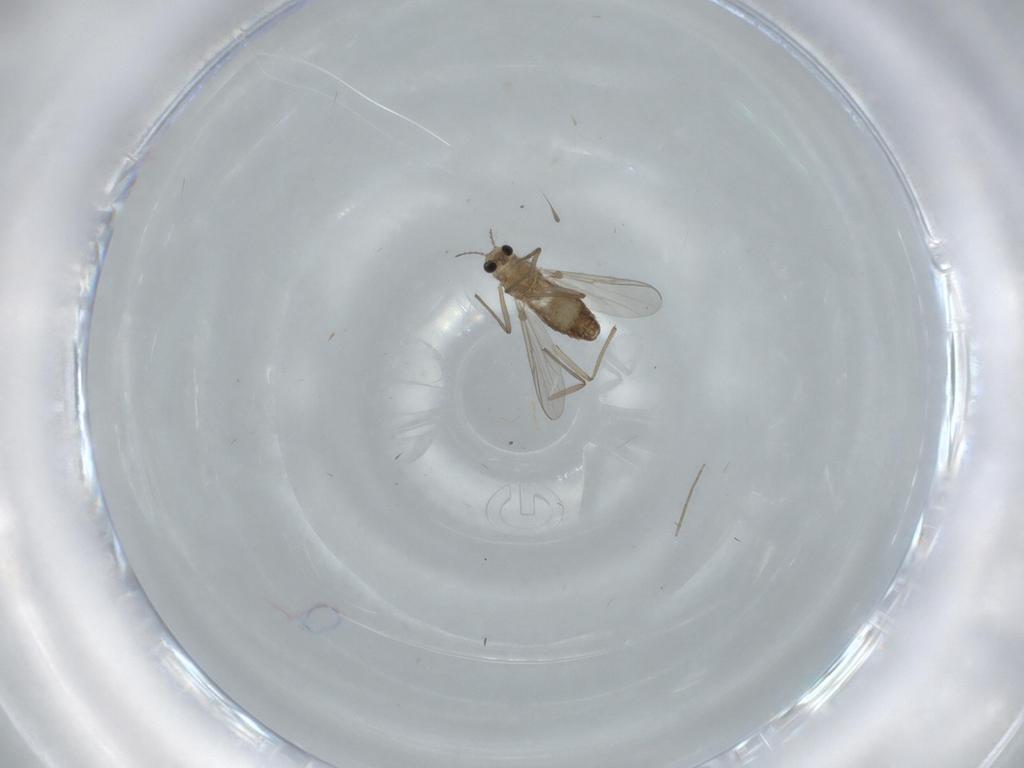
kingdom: Animalia
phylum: Arthropoda
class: Insecta
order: Diptera
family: Chironomidae
